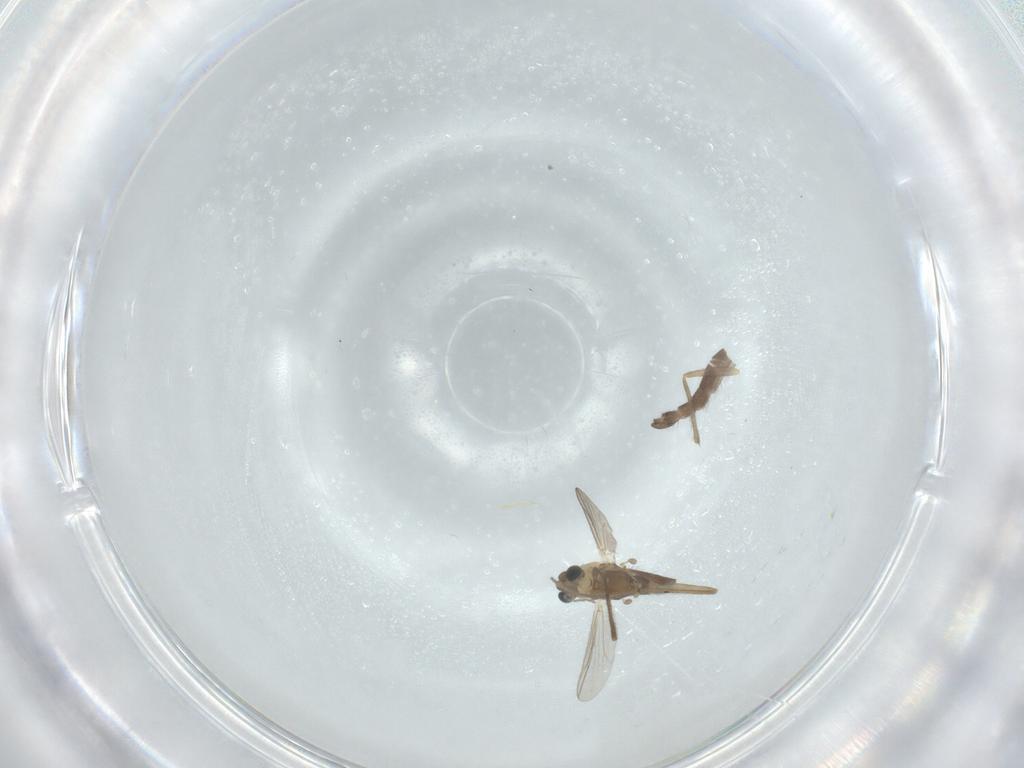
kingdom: Animalia
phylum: Arthropoda
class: Insecta
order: Diptera
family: Chironomidae
